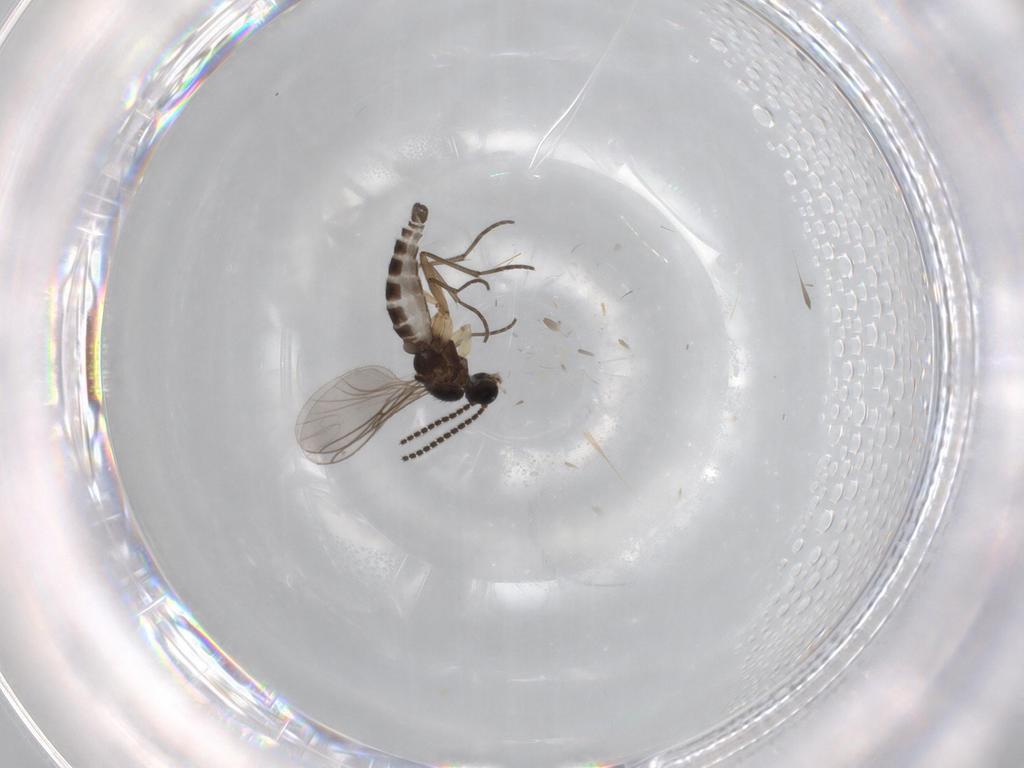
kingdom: Animalia
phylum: Arthropoda
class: Insecta
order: Diptera
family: Sciaridae
